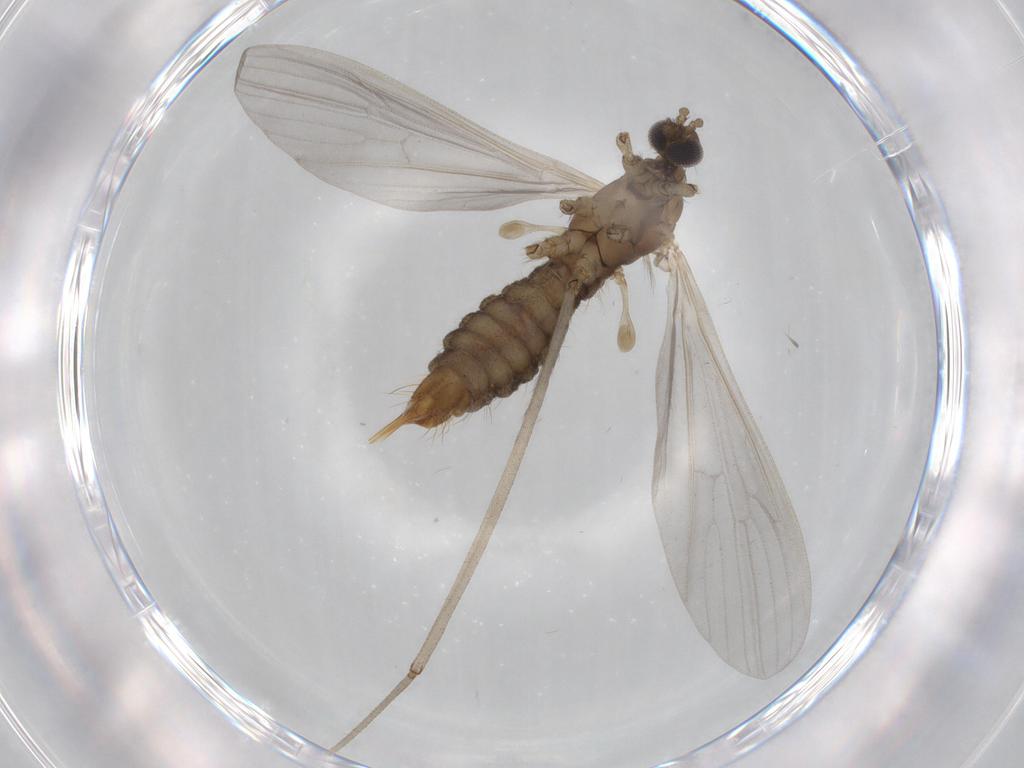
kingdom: Animalia
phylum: Arthropoda
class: Insecta
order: Diptera
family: Limoniidae
